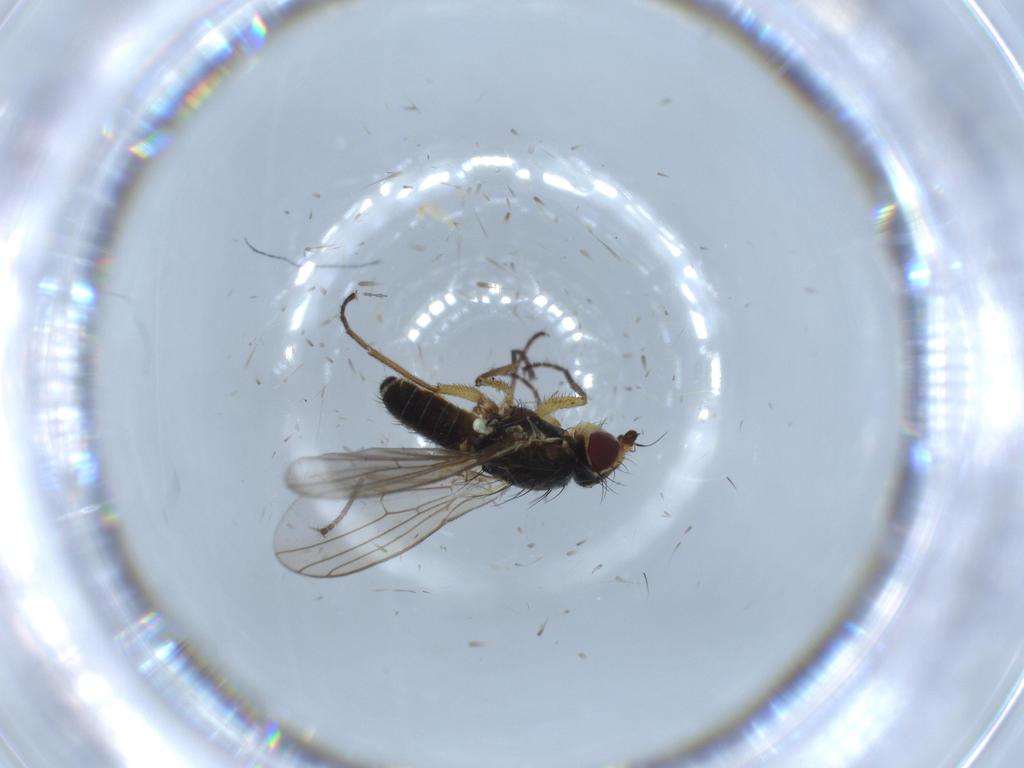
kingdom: Animalia
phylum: Arthropoda
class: Insecta
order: Diptera
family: Agromyzidae
